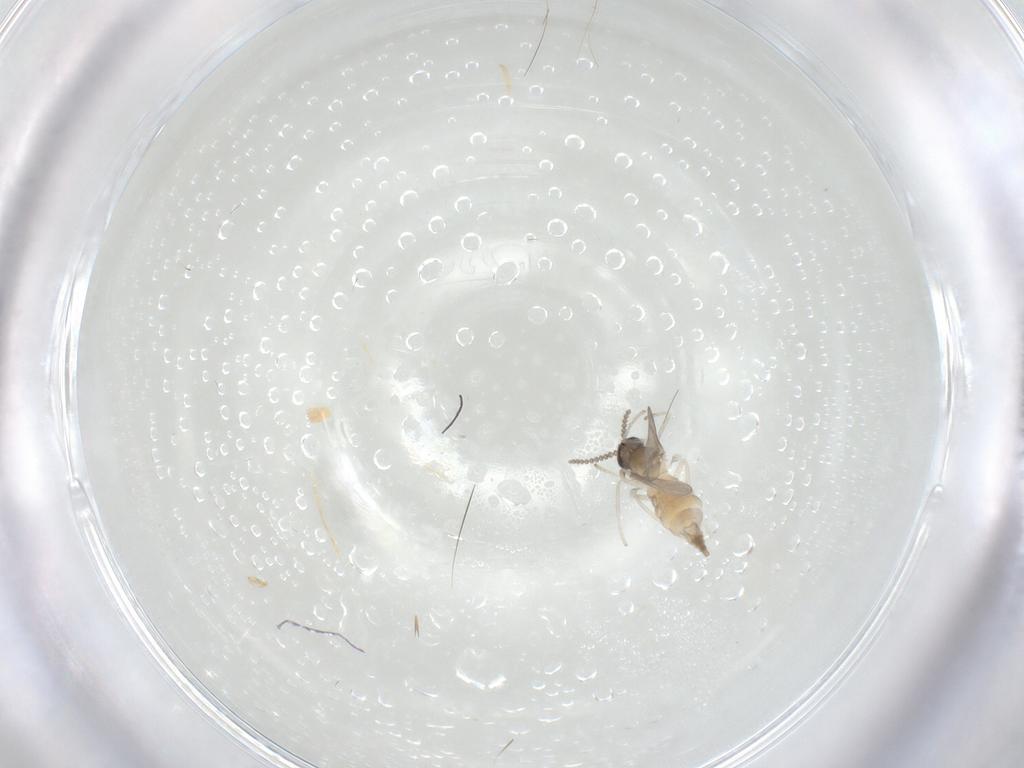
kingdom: Animalia
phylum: Arthropoda
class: Insecta
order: Diptera
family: Cecidomyiidae
